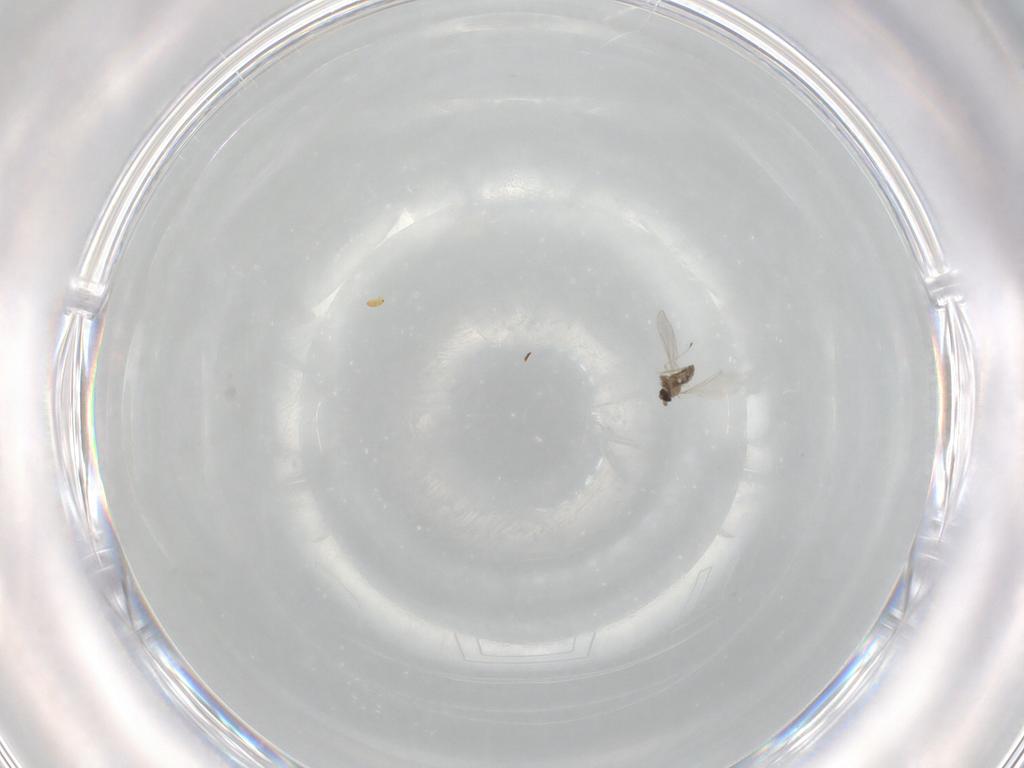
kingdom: Animalia
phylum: Arthropoda
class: Insecta
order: Diptera
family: Cecidomyiidae
